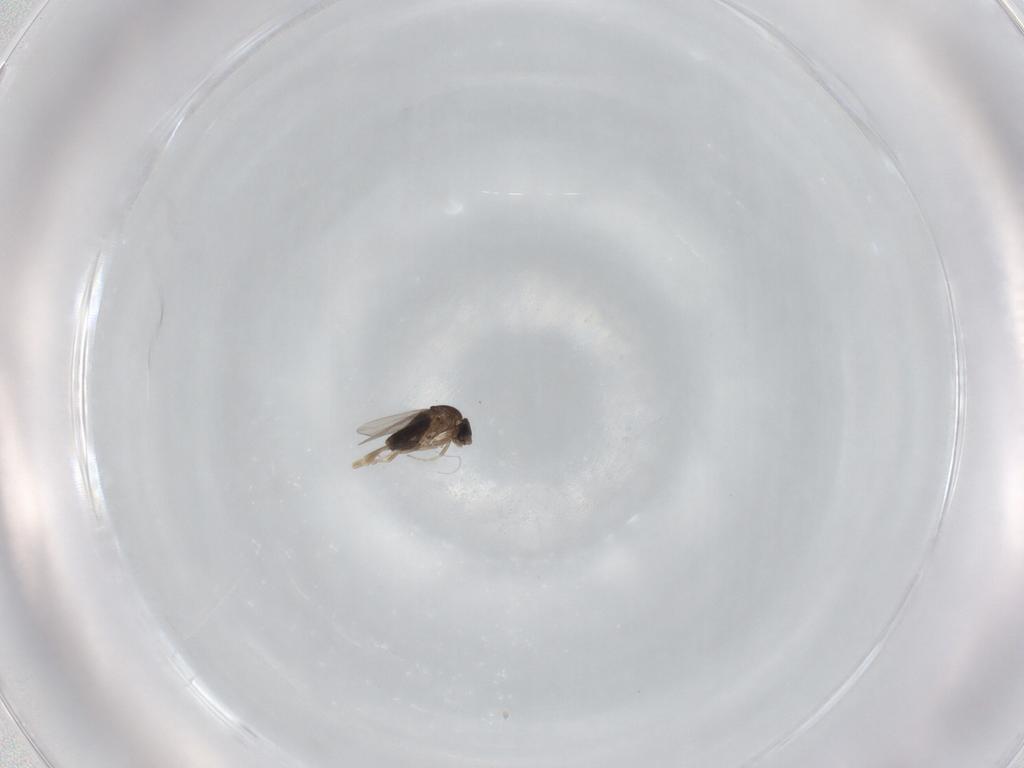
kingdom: Animalia
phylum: Arthropoda
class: Insecta
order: Diptera
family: Phoridae
